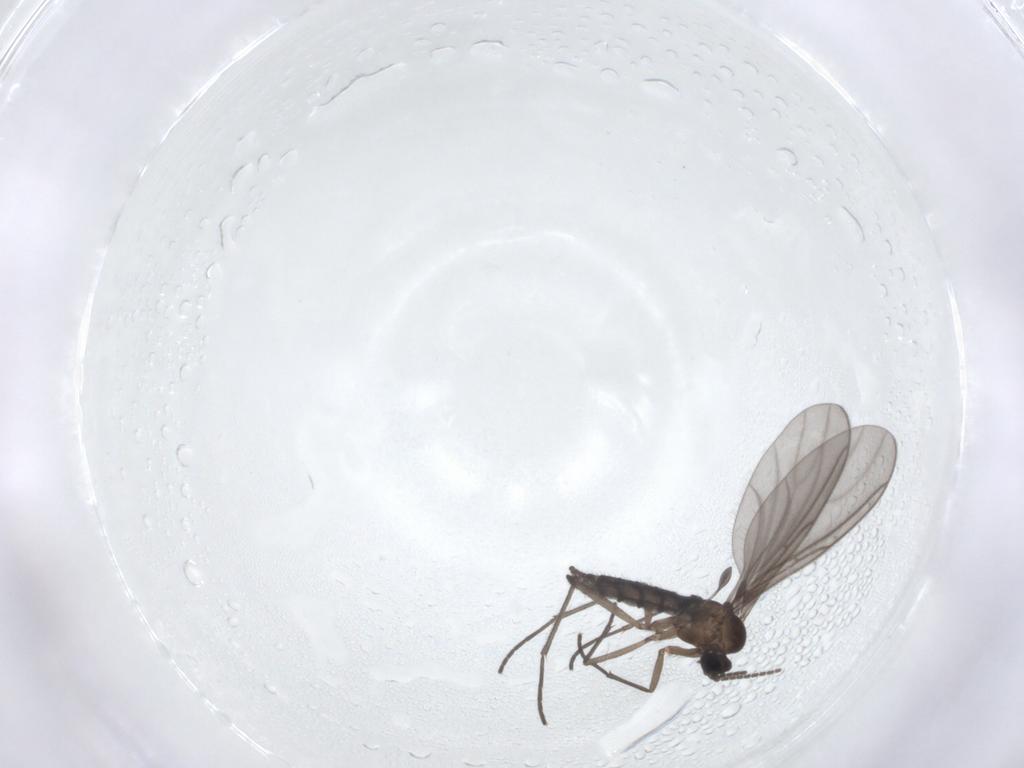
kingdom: Animalia
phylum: Arthropoda
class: Insecta
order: Diptera
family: Sciaridae
